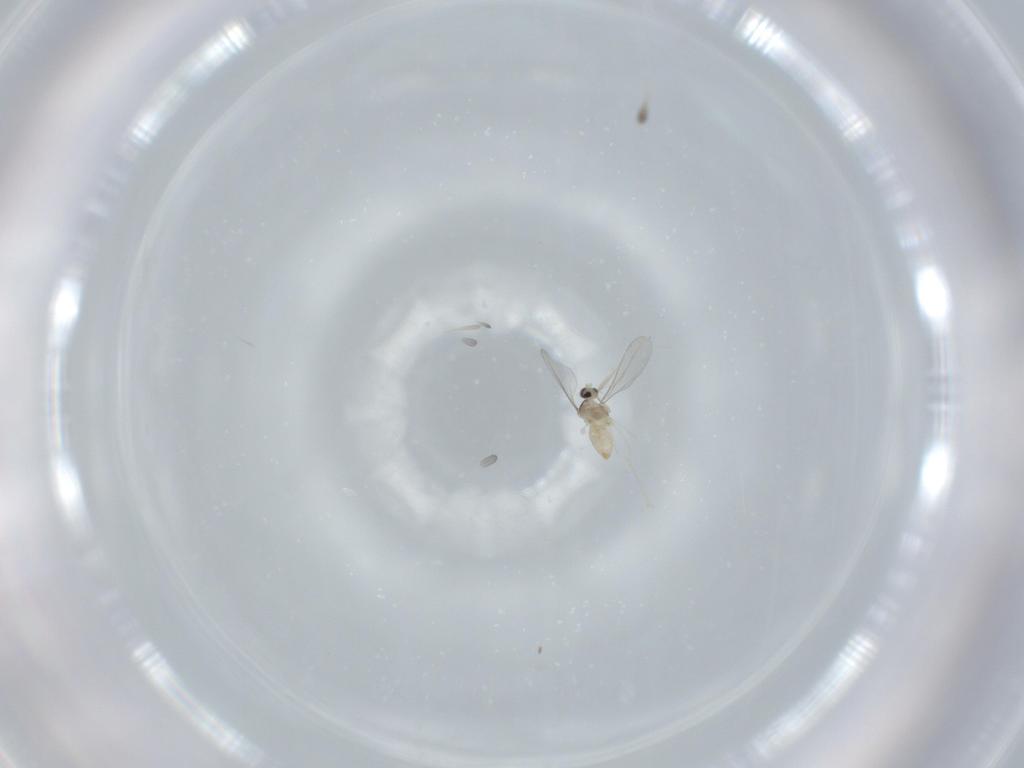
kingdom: Animalia
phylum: Arthropoda
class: Insecta
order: Diptera
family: Cecidomyiidae
